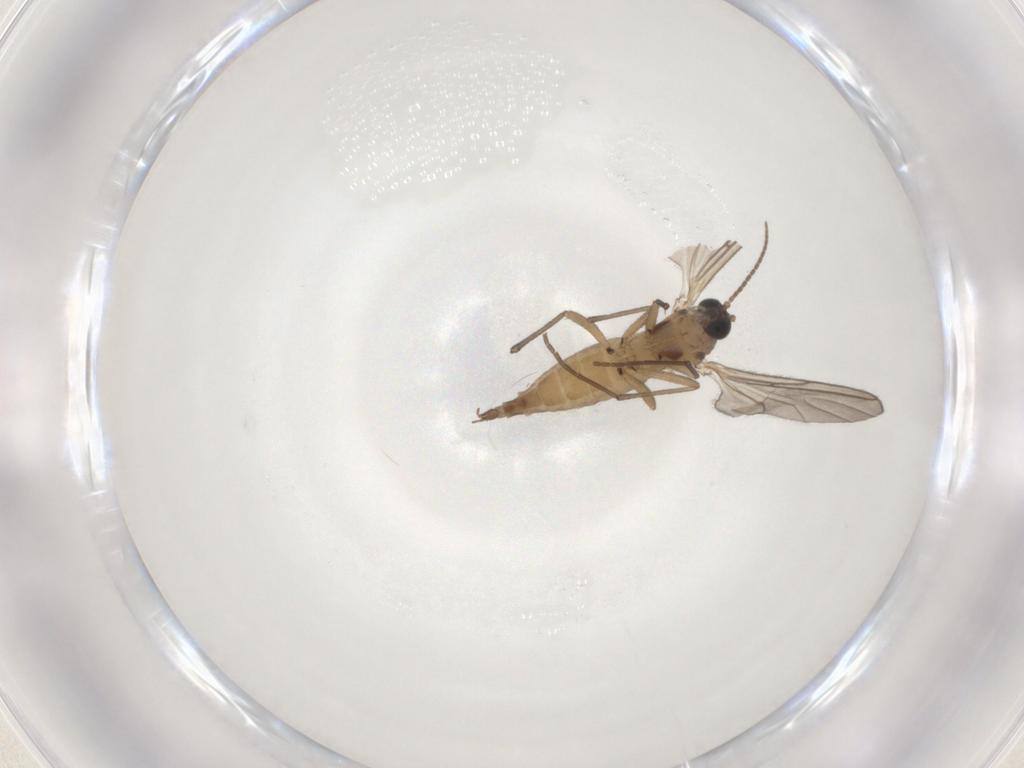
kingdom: Animalia
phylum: Arthropoda
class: Insecta
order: Diptera
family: Sciaridae
